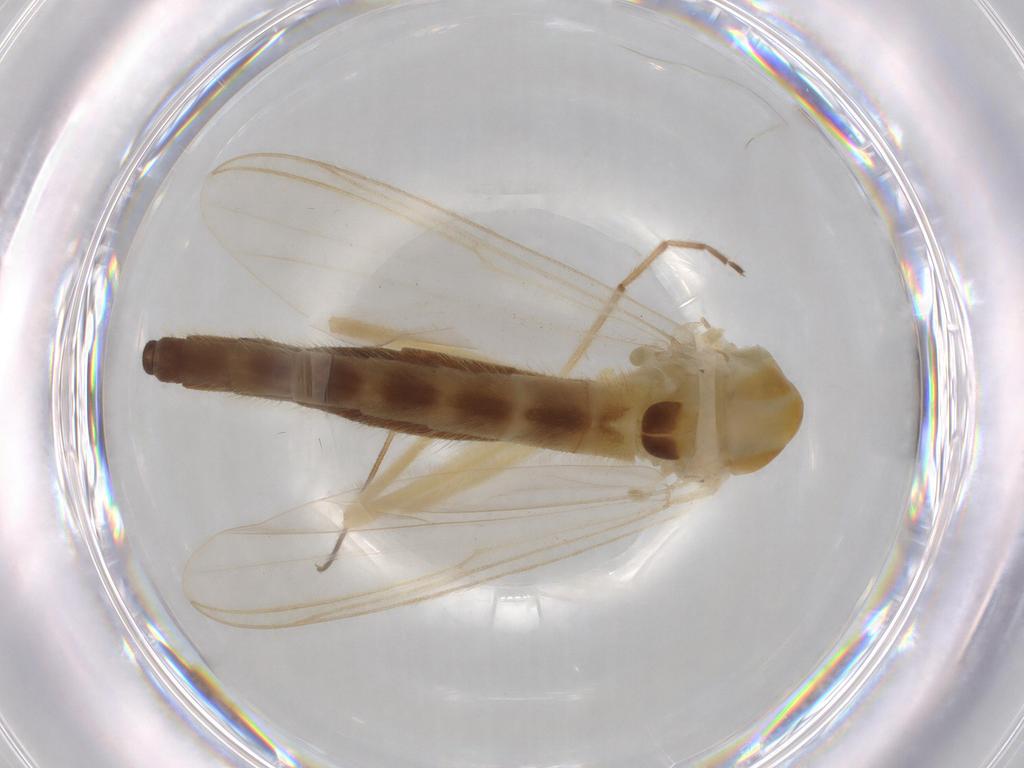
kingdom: Animalia
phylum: Arthropoda
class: Insecta
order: Diptera
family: Chironomidae
